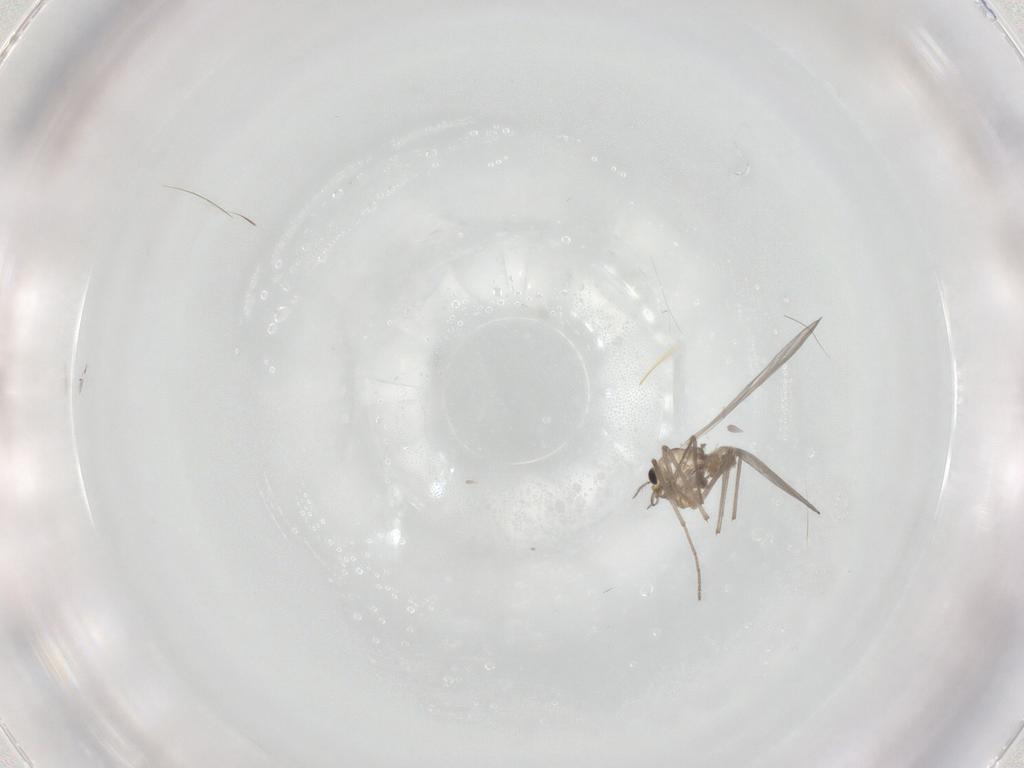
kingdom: Animalia
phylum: Arthropoda
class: Insecta
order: Diptera
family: Chironomidae
